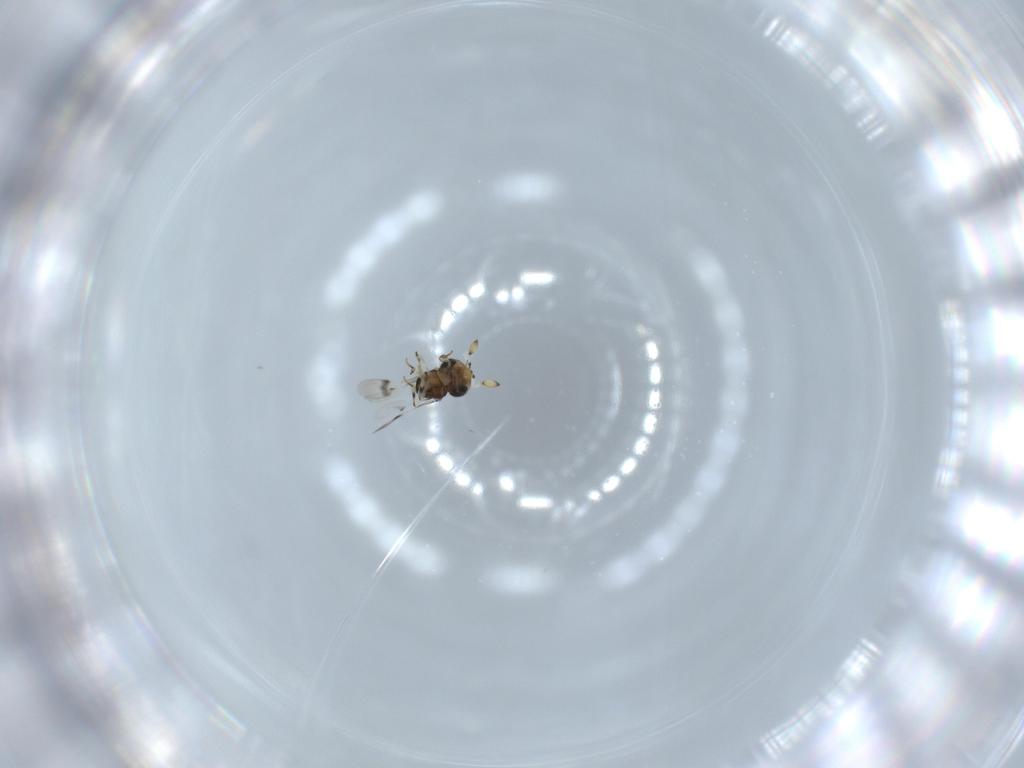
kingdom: Animalia
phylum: Arthropoda
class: Insecta
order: Hymenoptera
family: Scelionidae
